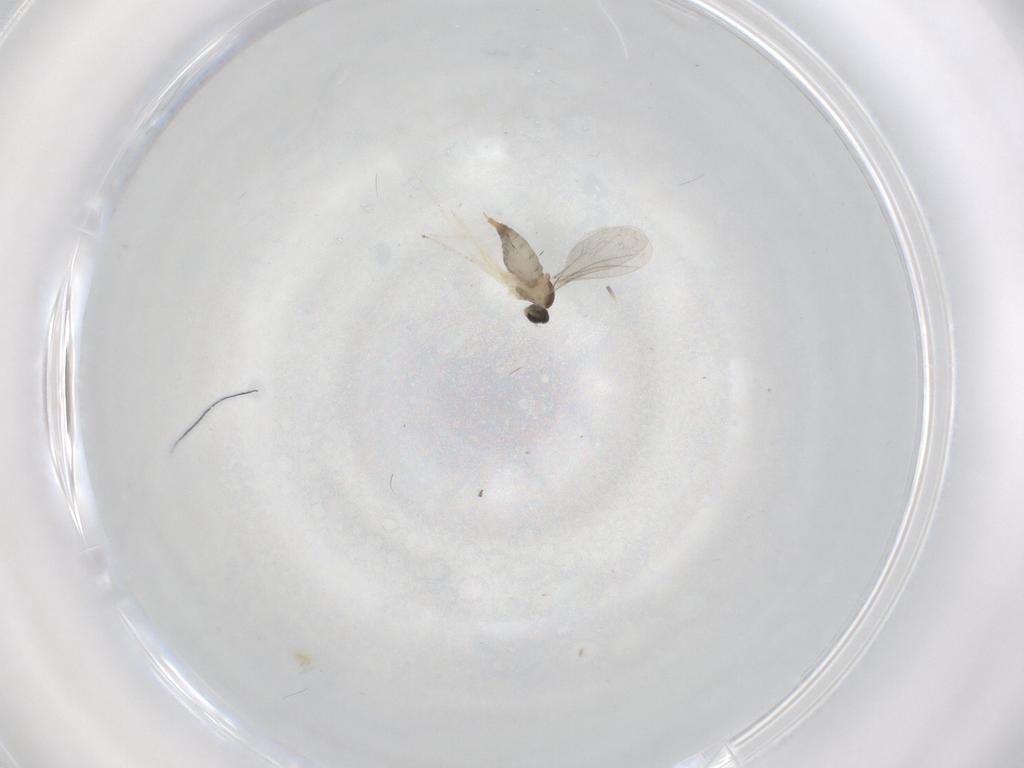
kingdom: Animalia
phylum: Arthropoda
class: Insecta
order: Diptera
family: Cecidomyiidae
